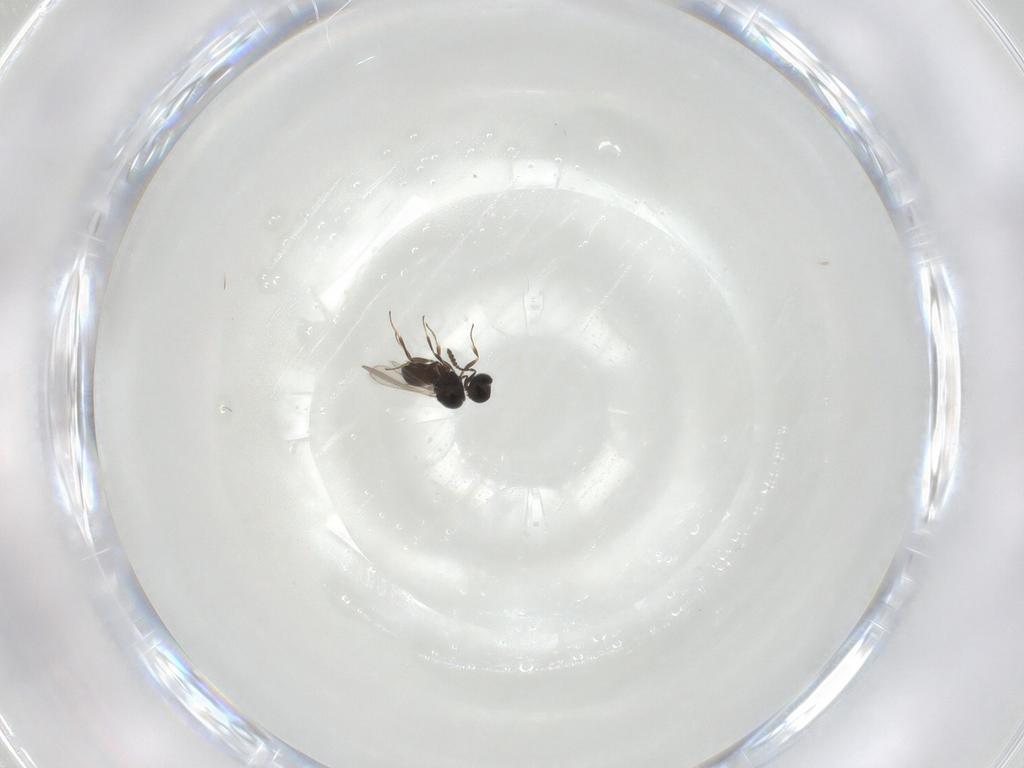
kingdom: Animalia
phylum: Arthropoda
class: Insecta
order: Hymenoptera
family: Scelionidae
